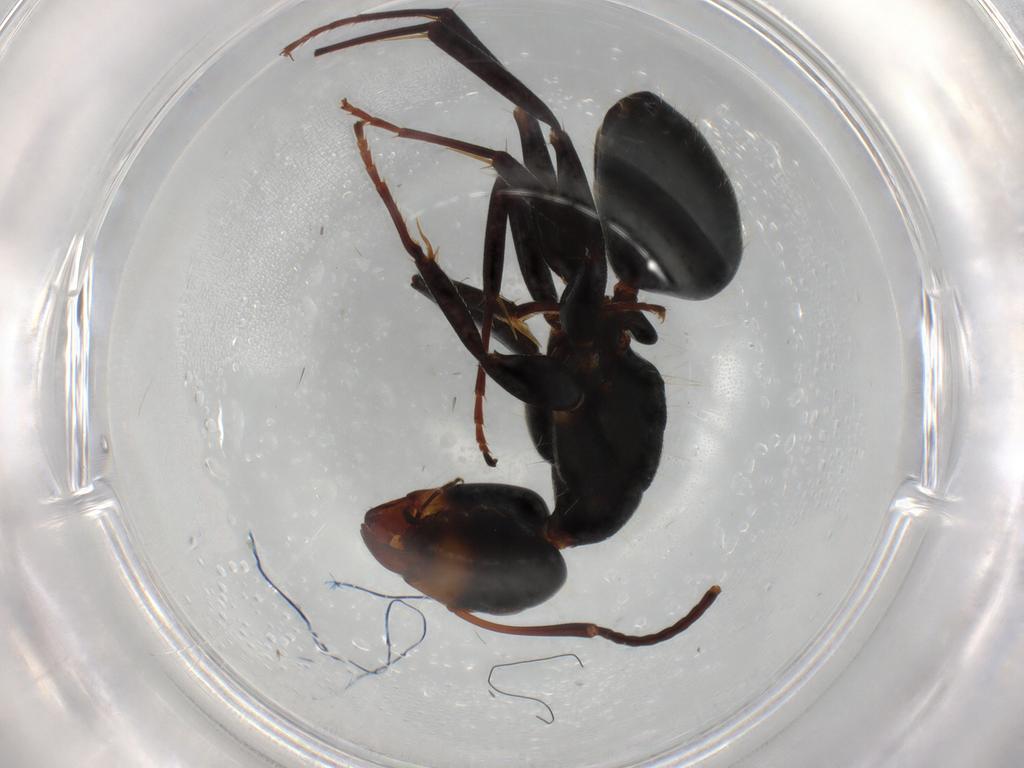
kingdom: Animalia
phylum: Arthropoda
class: Insecta
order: Hymenoptera
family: Formicidae
